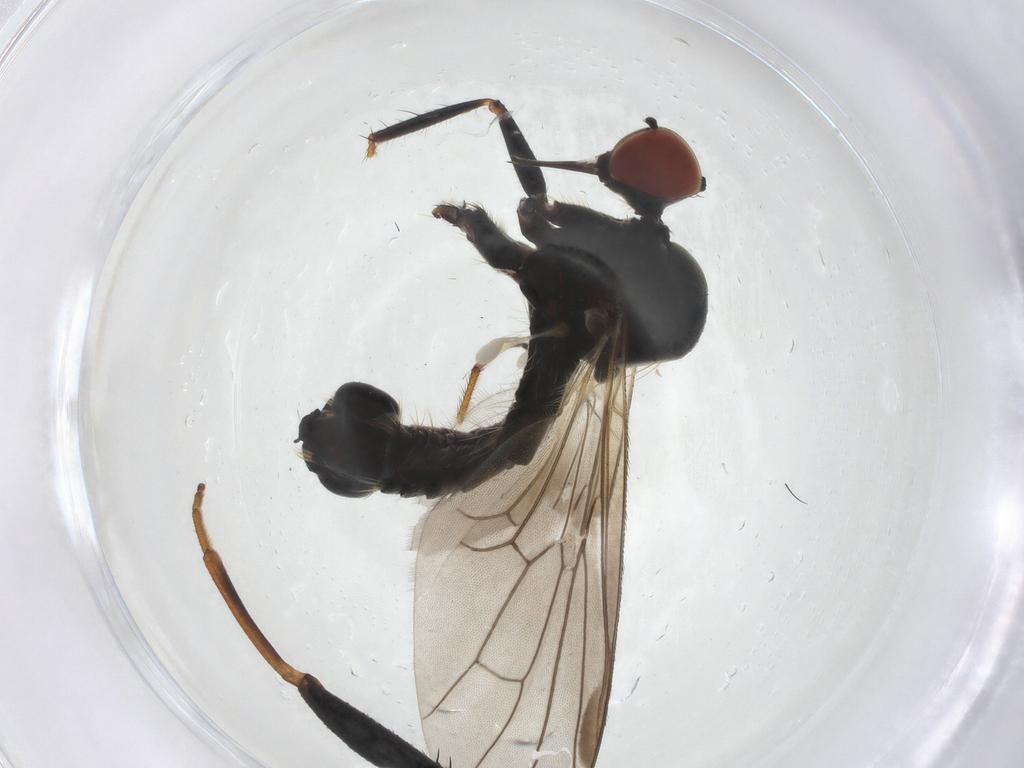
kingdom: Animalia
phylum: Arthropoda
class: Insecta
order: Diptera
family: Hybotidae
